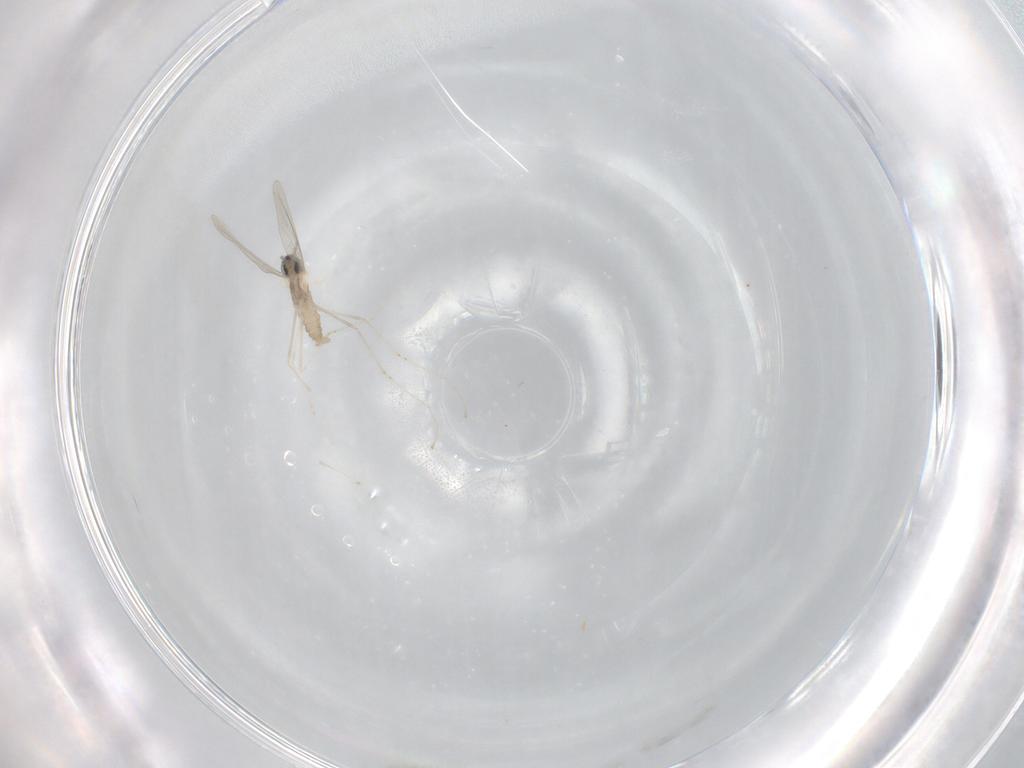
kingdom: Animalia
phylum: Arthropoda
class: Insecta
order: Diptera
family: Cecidomyiidae
